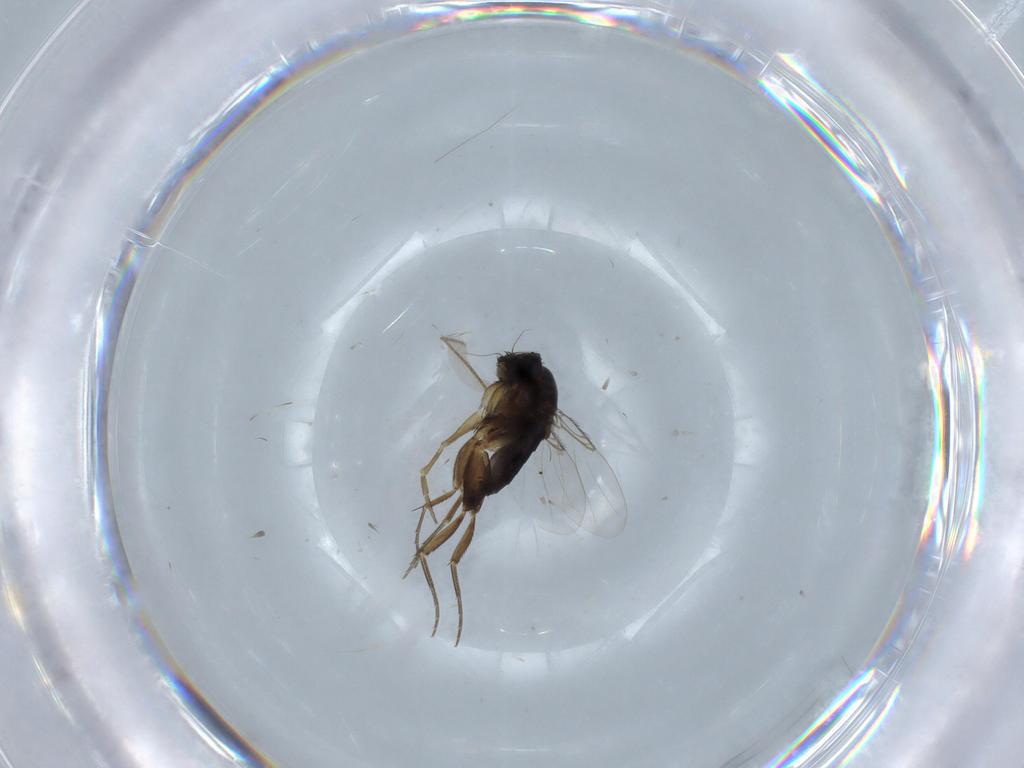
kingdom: Animalia
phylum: Arthropoda
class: Insecta
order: Diptera
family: Phoridae
